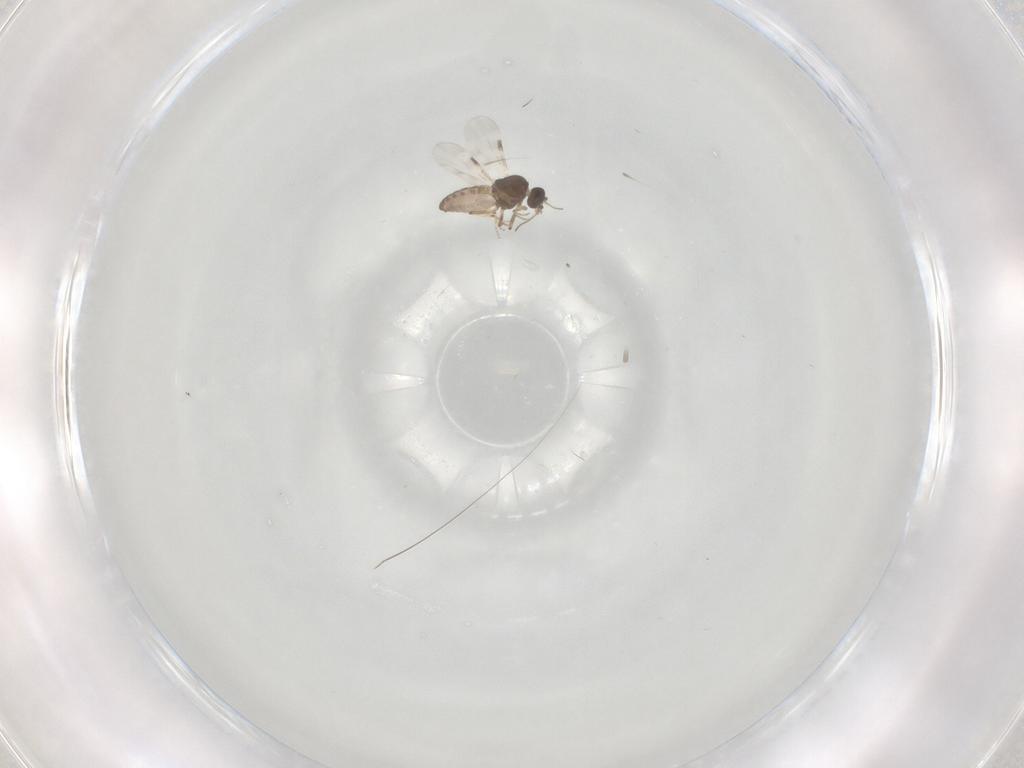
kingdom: Animalia
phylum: Arthropoda
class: Insecta
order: Diptera
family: Cecidomyiidae
